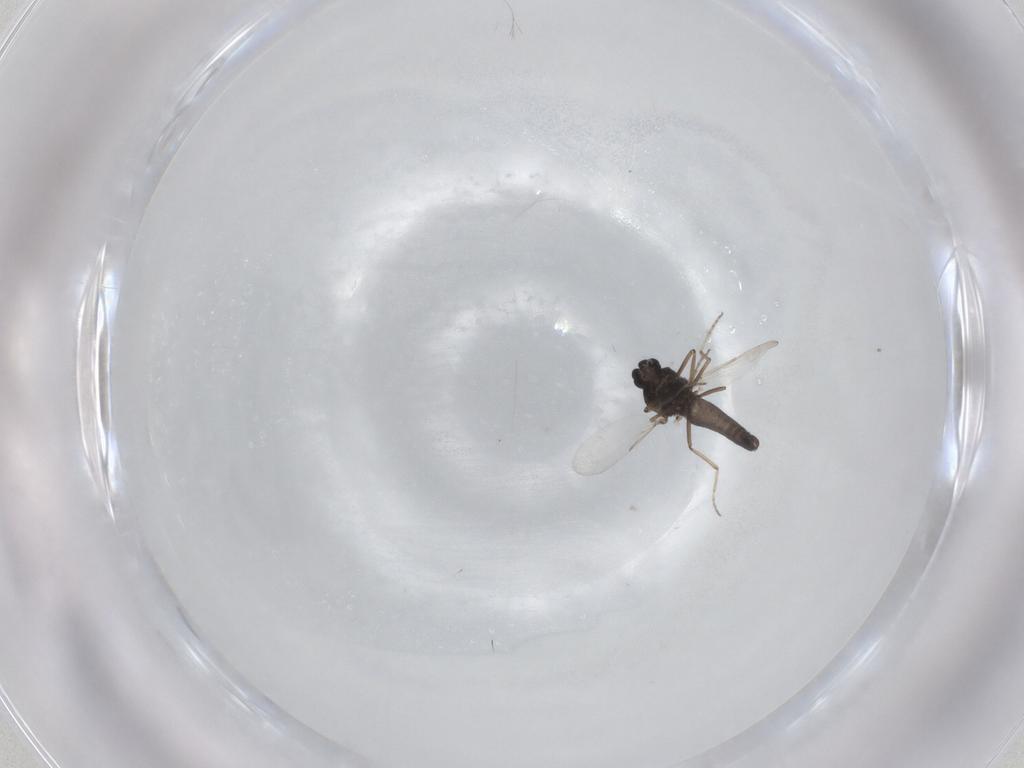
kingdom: Animalia
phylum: Arthropoda
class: Insecta
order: Diptera
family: Ceratopogonidae
